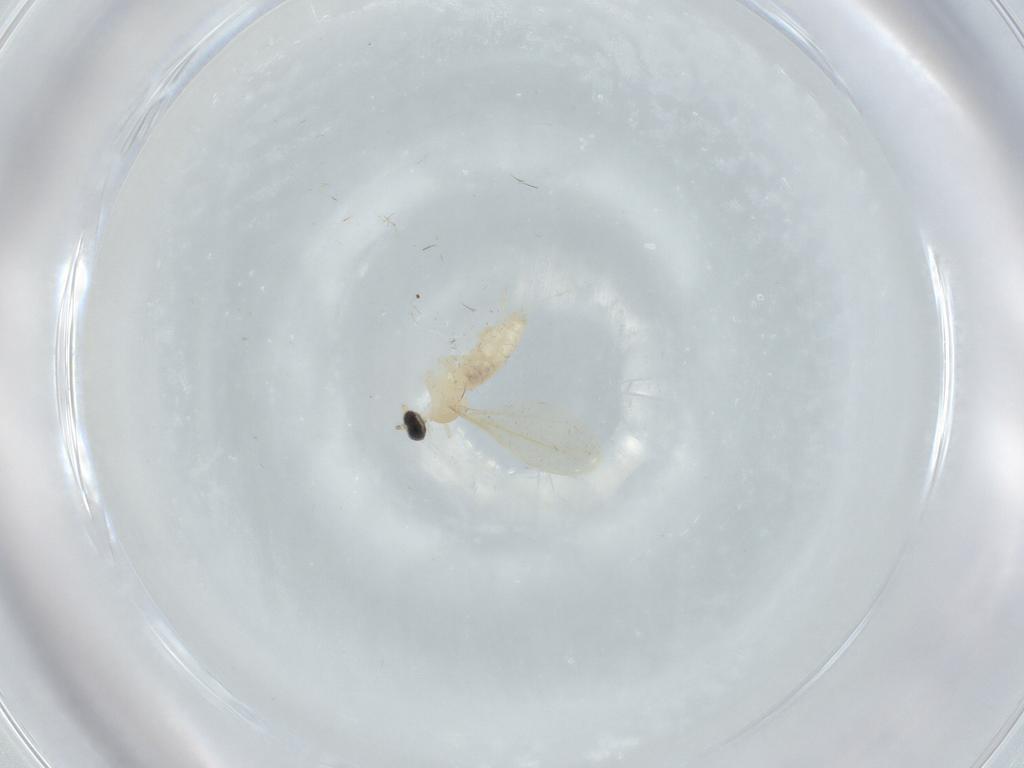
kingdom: Animalia
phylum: Arthropoda
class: Insecta
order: Diptera
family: Cecidomyiidae
